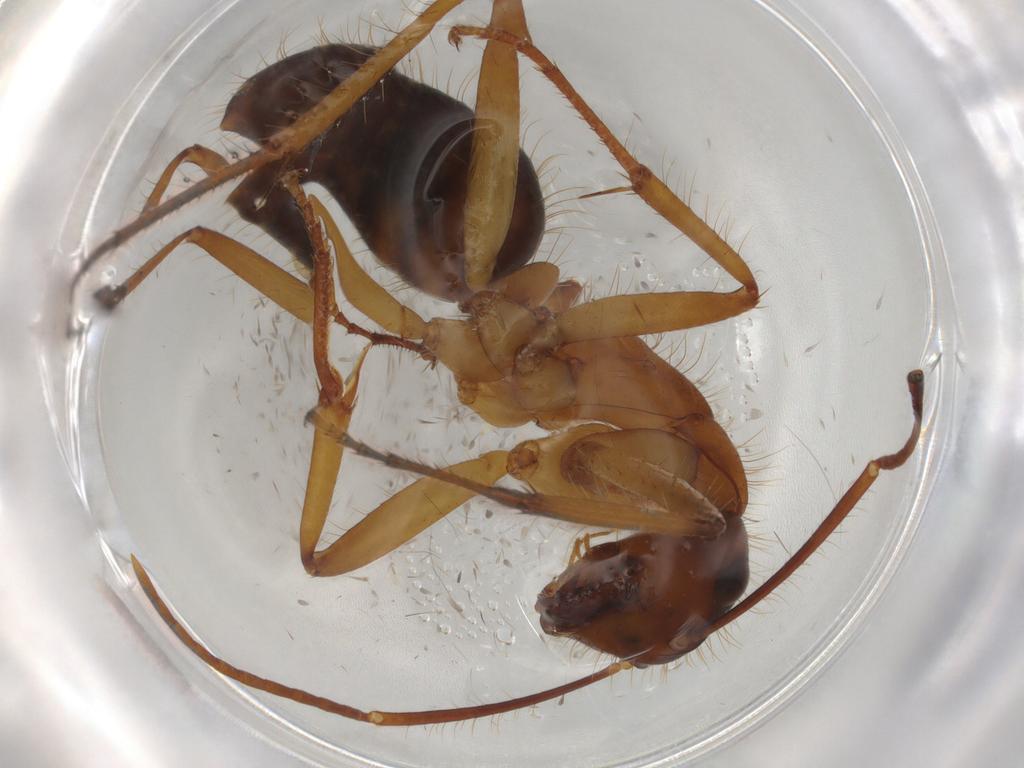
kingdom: Animalia
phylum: Arthropoda
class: Insecta
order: Hymenoptera
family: Formicidae
